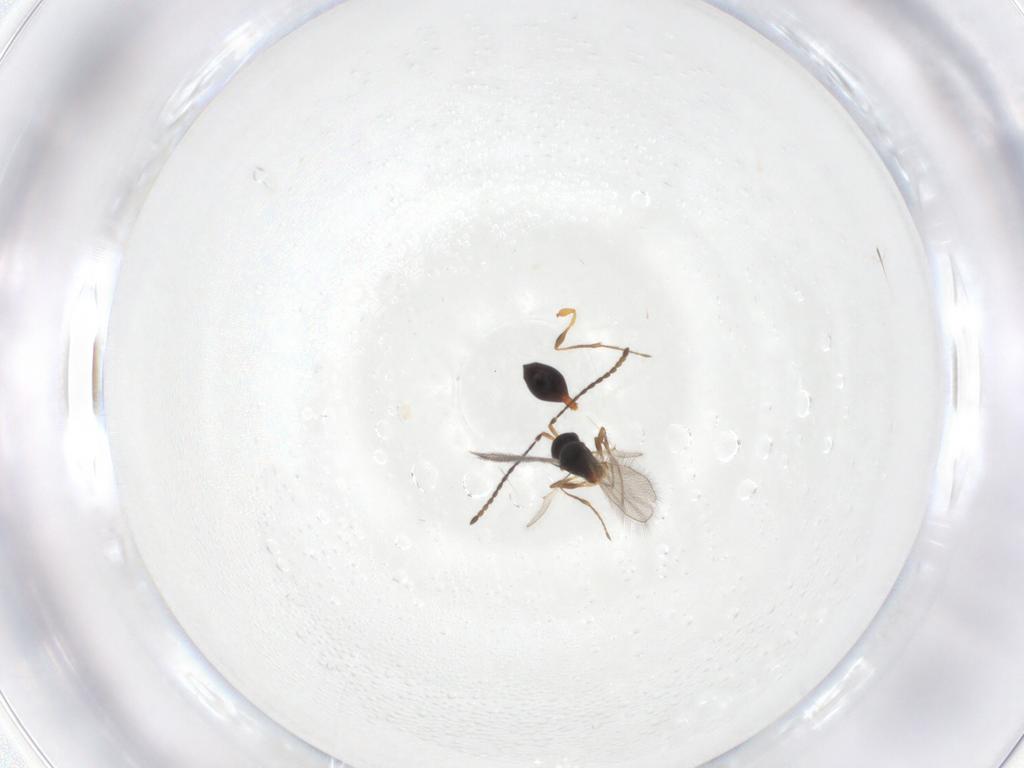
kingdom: Animalia
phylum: Arthropoda
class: Insecta
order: Hymenoptera
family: Diapriidae
